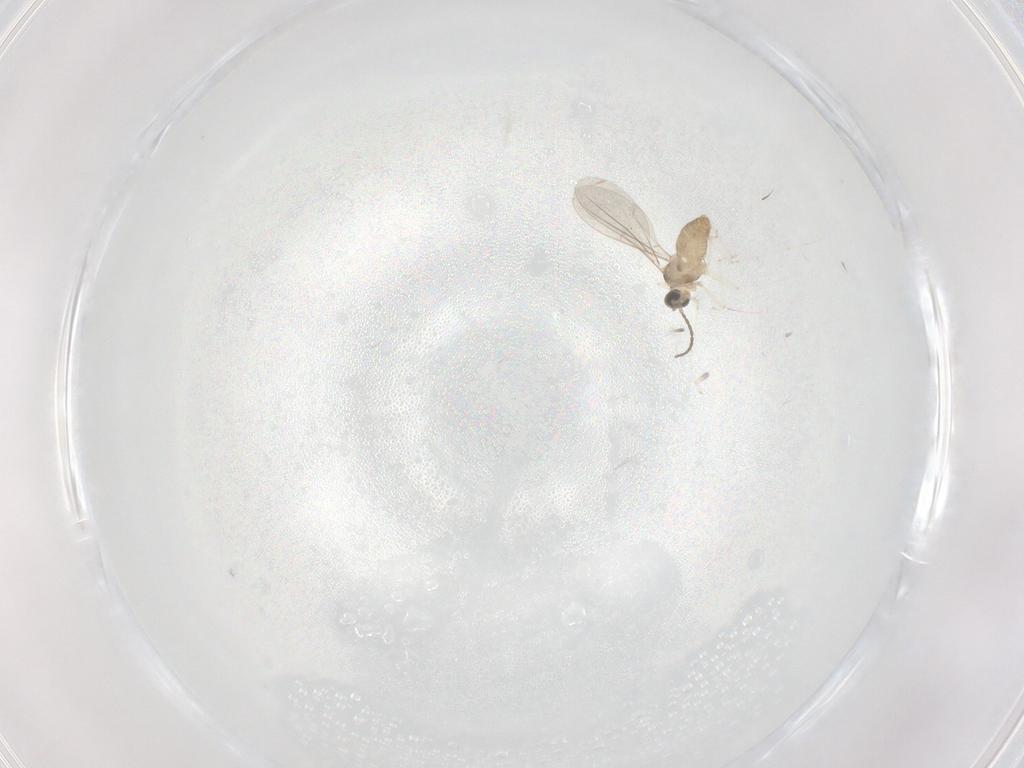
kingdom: Animalia
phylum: Arthropoda
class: Insecta
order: Diptera
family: Cecidomyiidae
